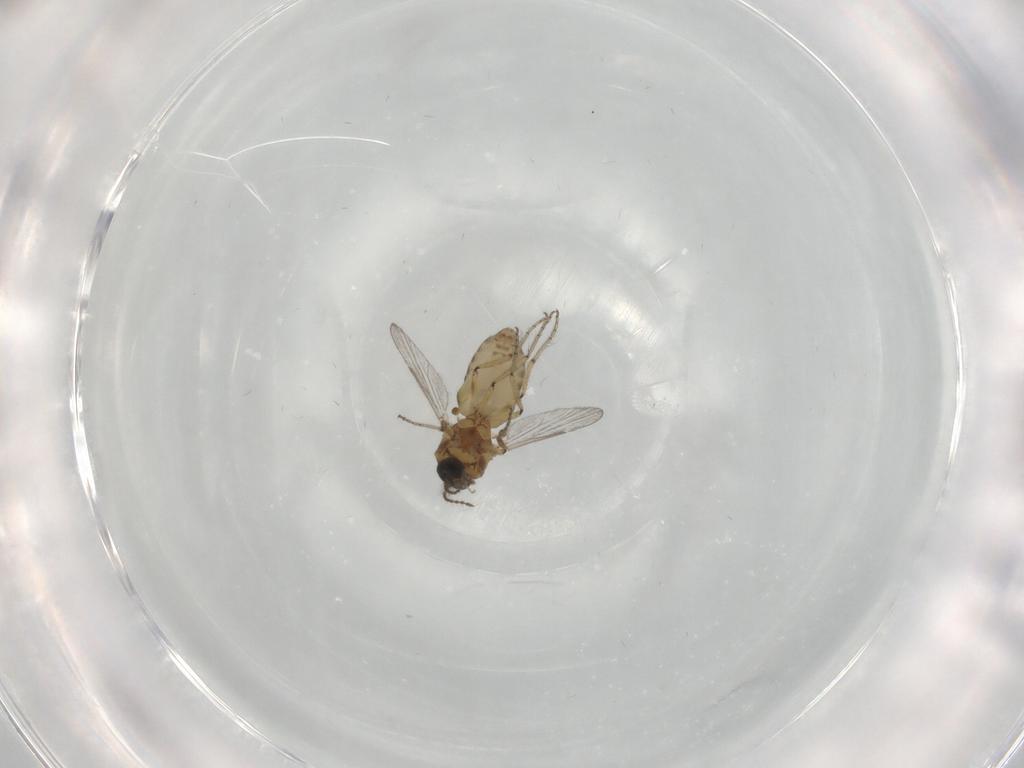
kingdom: Animalia
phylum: Arthropoda
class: Insecta
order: Diptera
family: Ceratopogonidae
